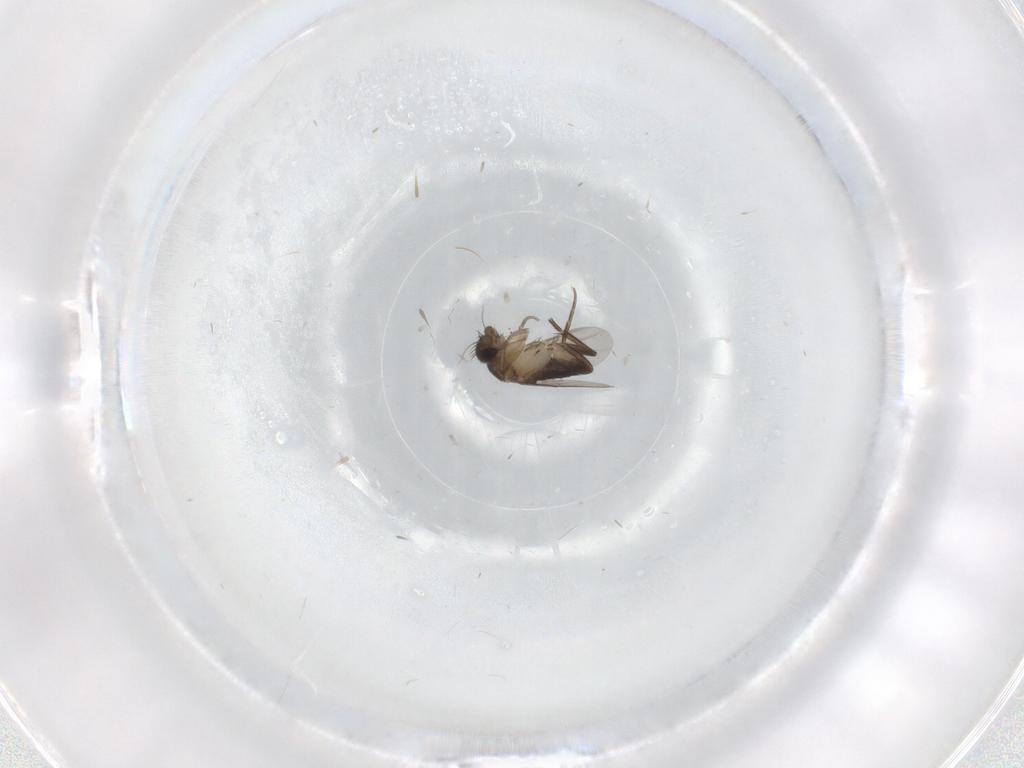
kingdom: Animalia
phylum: Arthropoda
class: Insecta
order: Diptera
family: Phoridae
